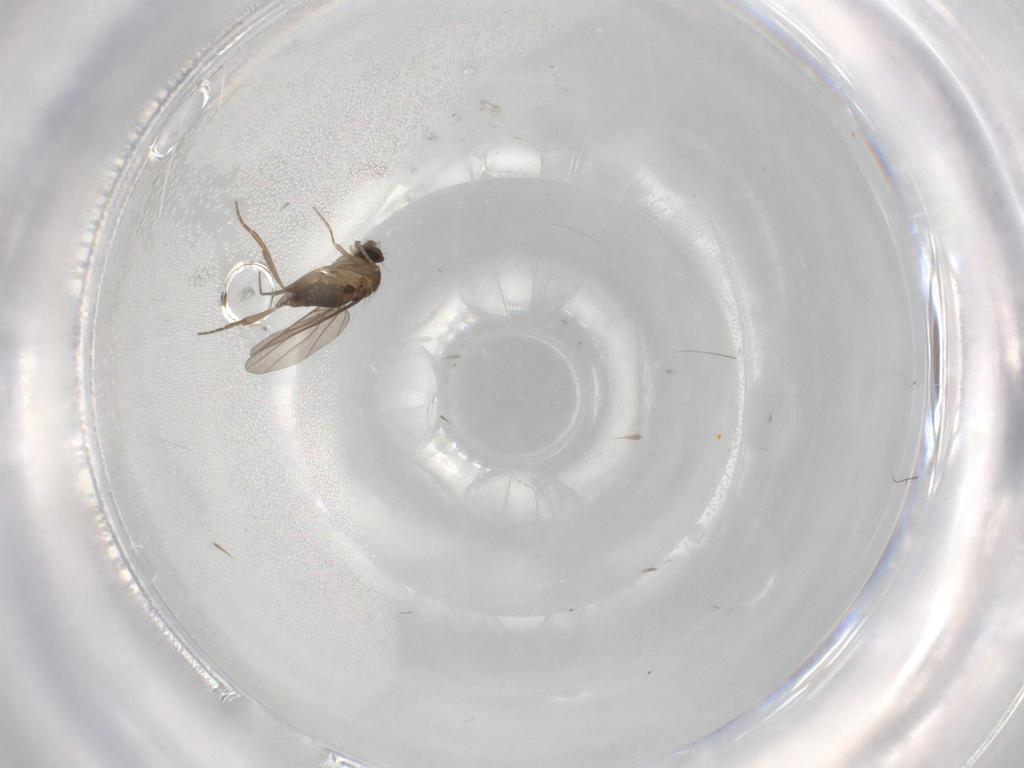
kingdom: Animalia
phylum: Arthropoda
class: Insecta
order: Diptera
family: Phoridae
